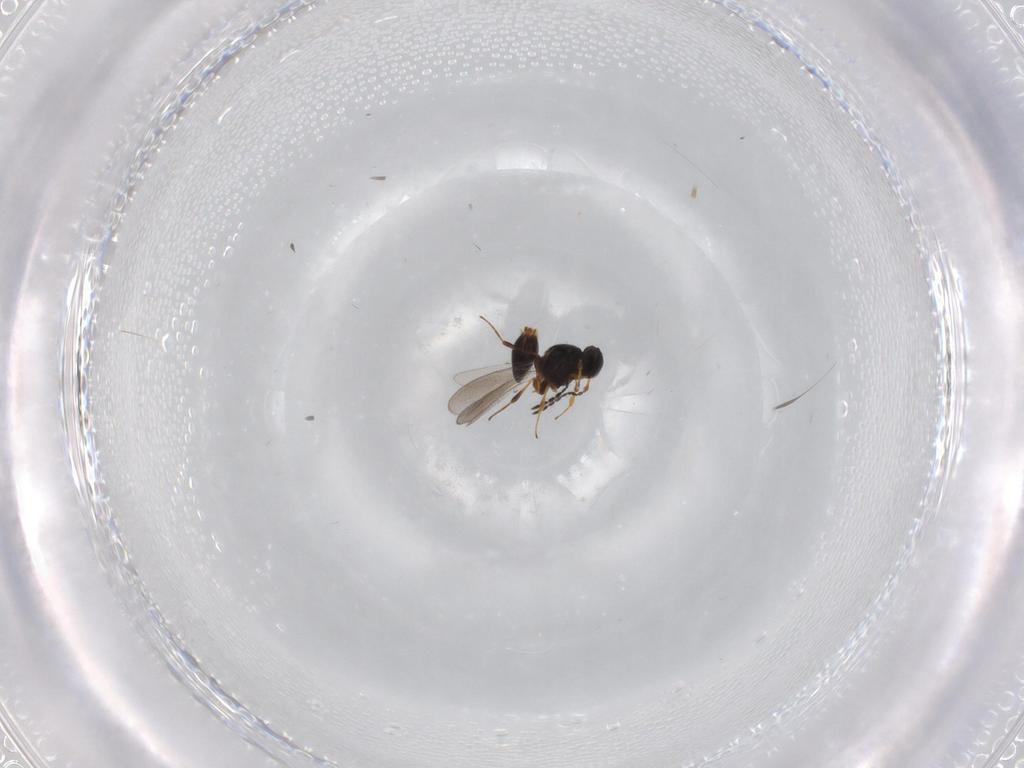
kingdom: Animalia
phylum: Arthropoda
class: Insecta
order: Hymenoptera
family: Platygastridae
